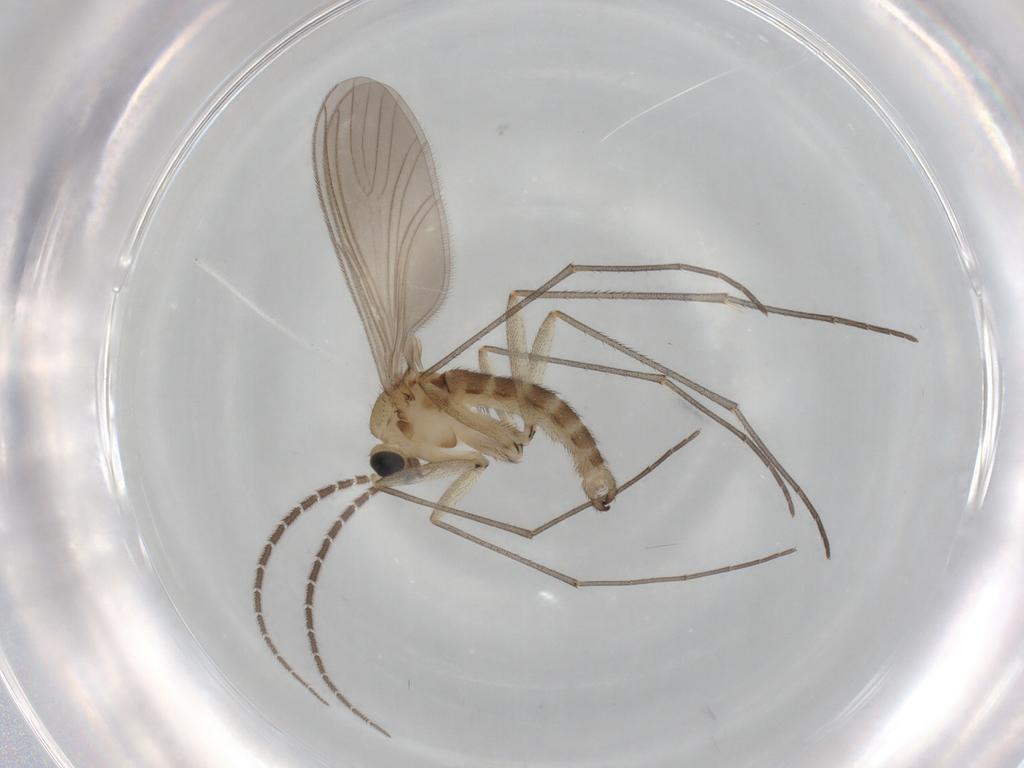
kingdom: Animalia
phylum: Arthropoda
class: Insecta
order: Diptera
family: Sciaridae
